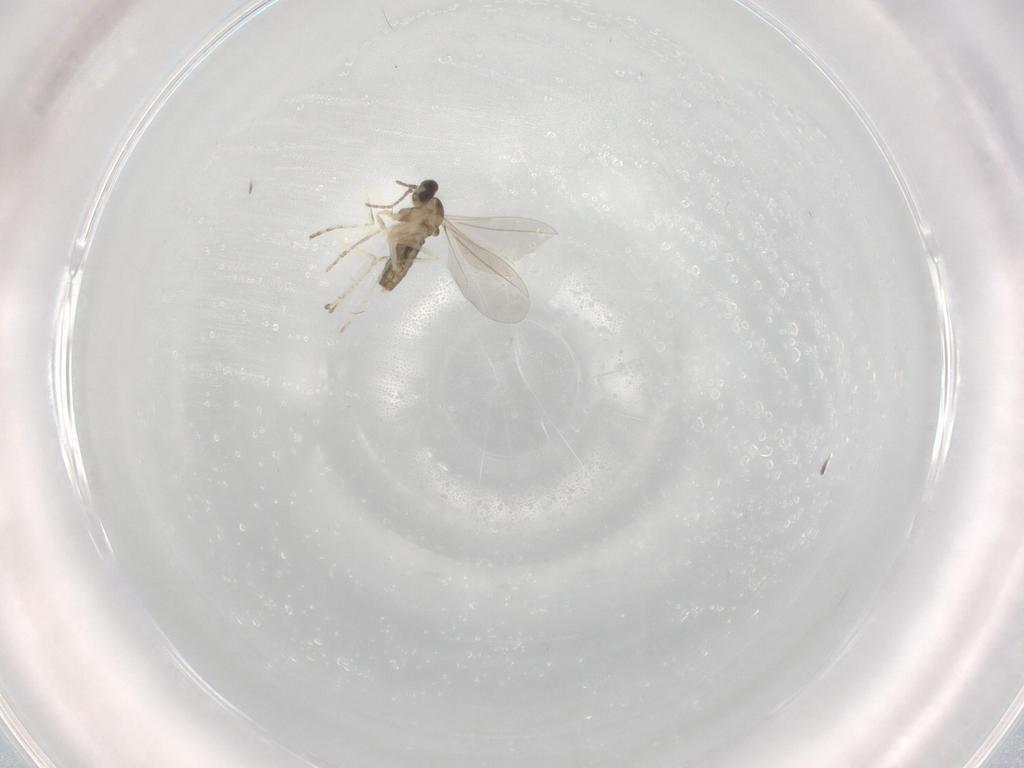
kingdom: Animalia
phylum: Arthropoda
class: Insecta
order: Diptera
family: Cecidomyiidae
